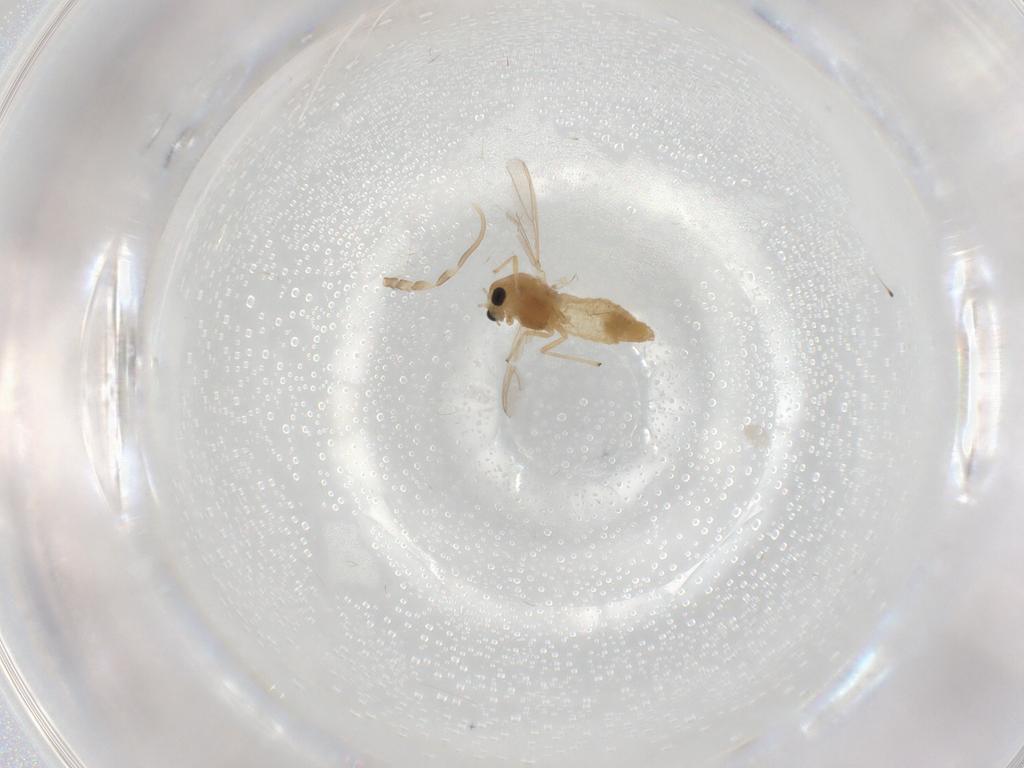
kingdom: Animalia
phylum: Arthropoda
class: Insecta
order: Diptera
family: Chironomidae
